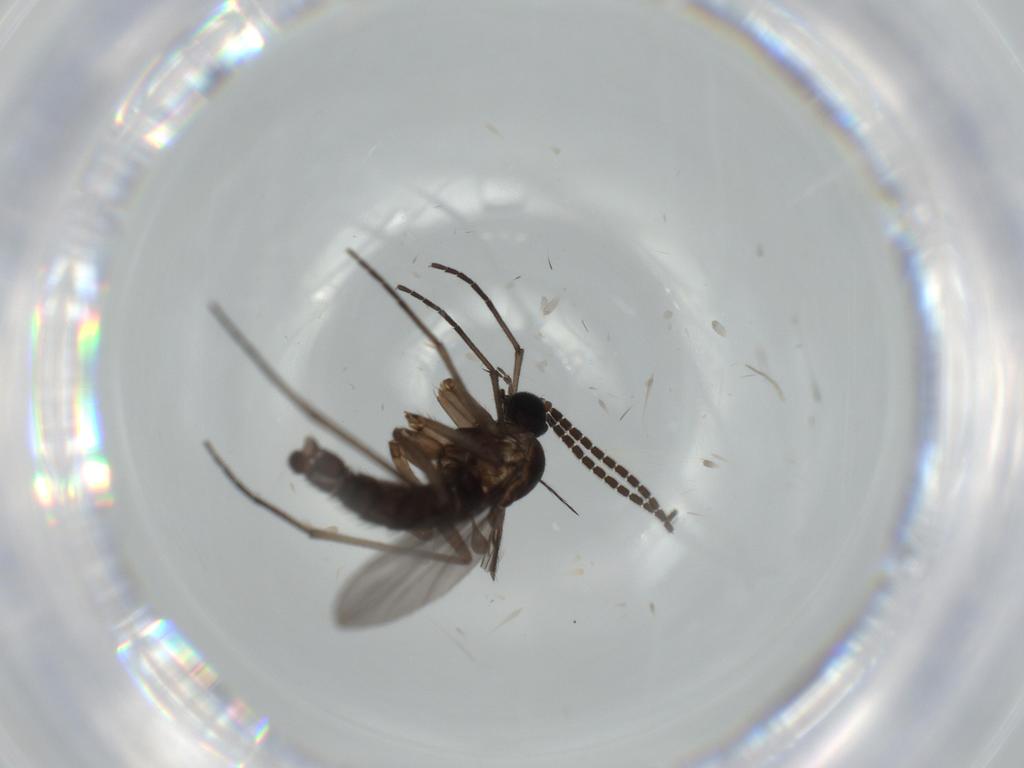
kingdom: Animalia
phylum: Arthropoda
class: Insecta
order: Diptera
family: Sciaridae
